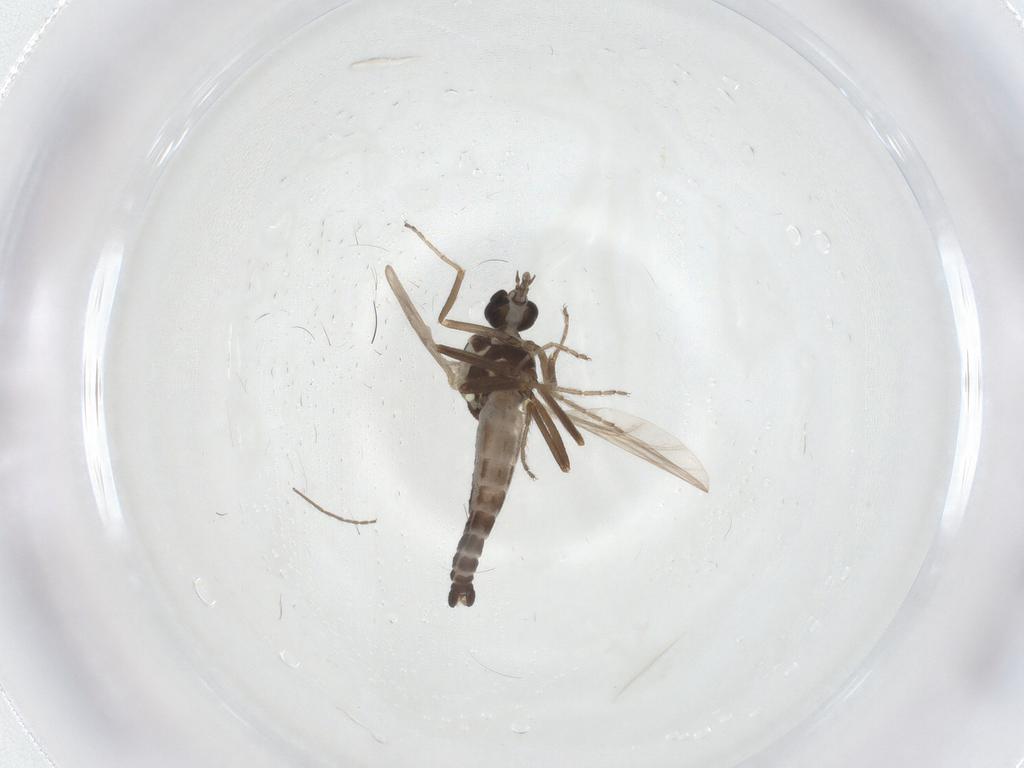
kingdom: Animalia
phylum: Arthropoda
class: Insecta
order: Diptera
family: Ceratopogonidae
